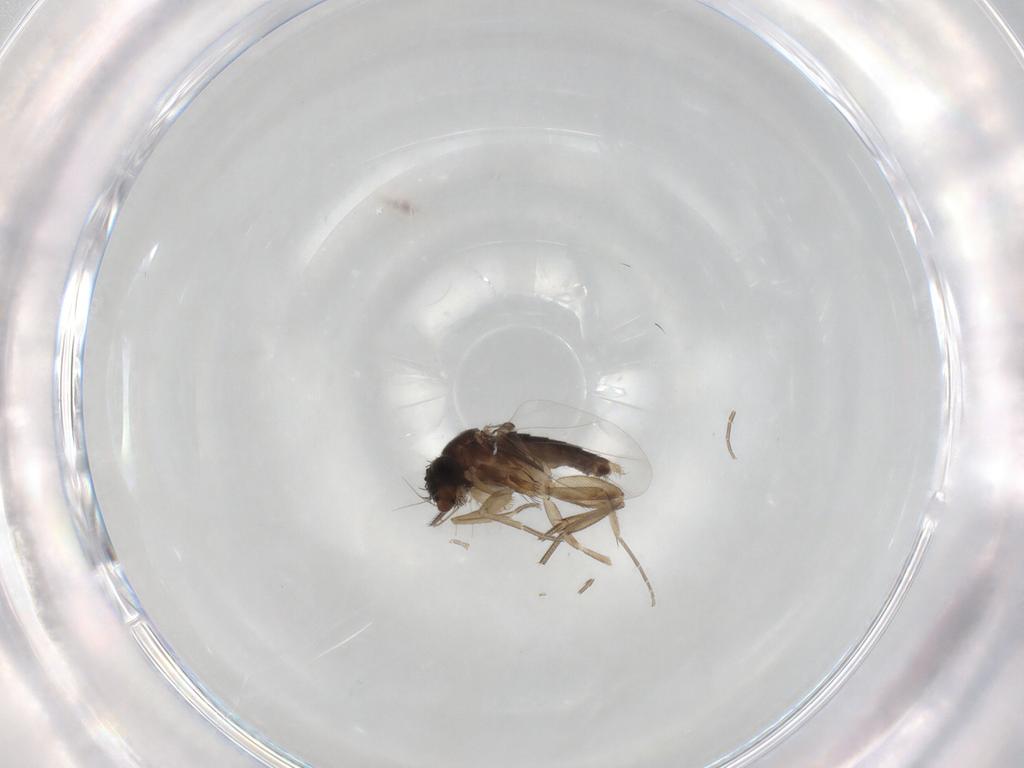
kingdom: Animalia
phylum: Arthropoda
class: Insecta
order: Diptera
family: Phoridae
